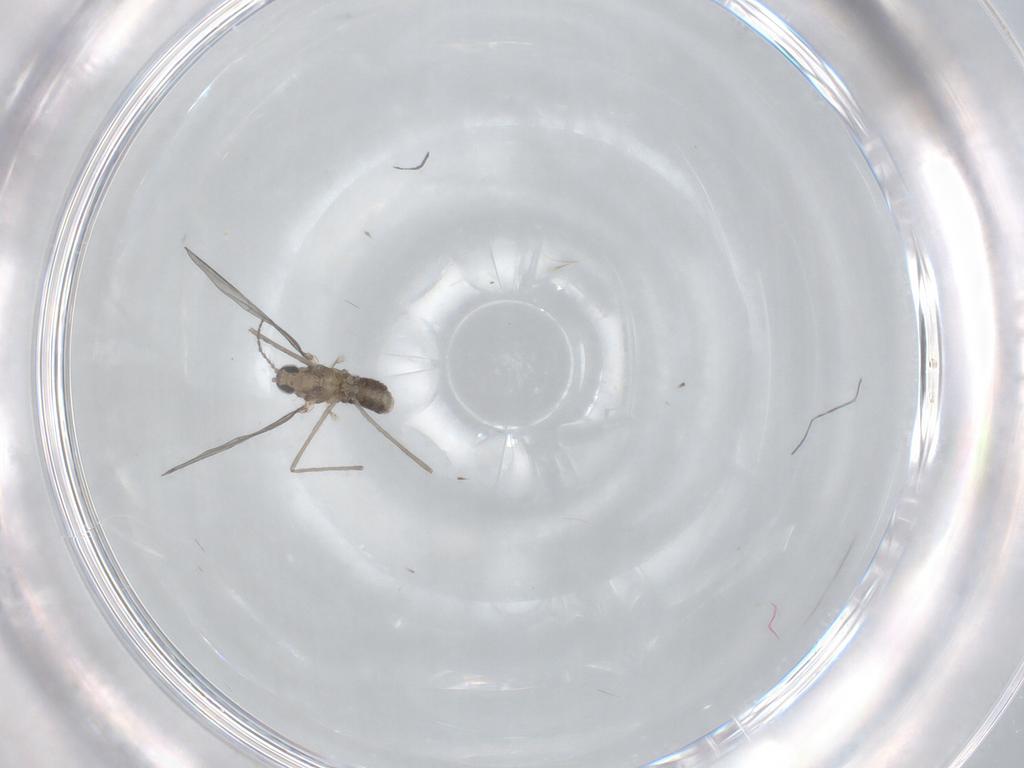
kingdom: Animalia
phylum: Arthropoda
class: Insecta
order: Diptera
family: Cecidomyiidae
